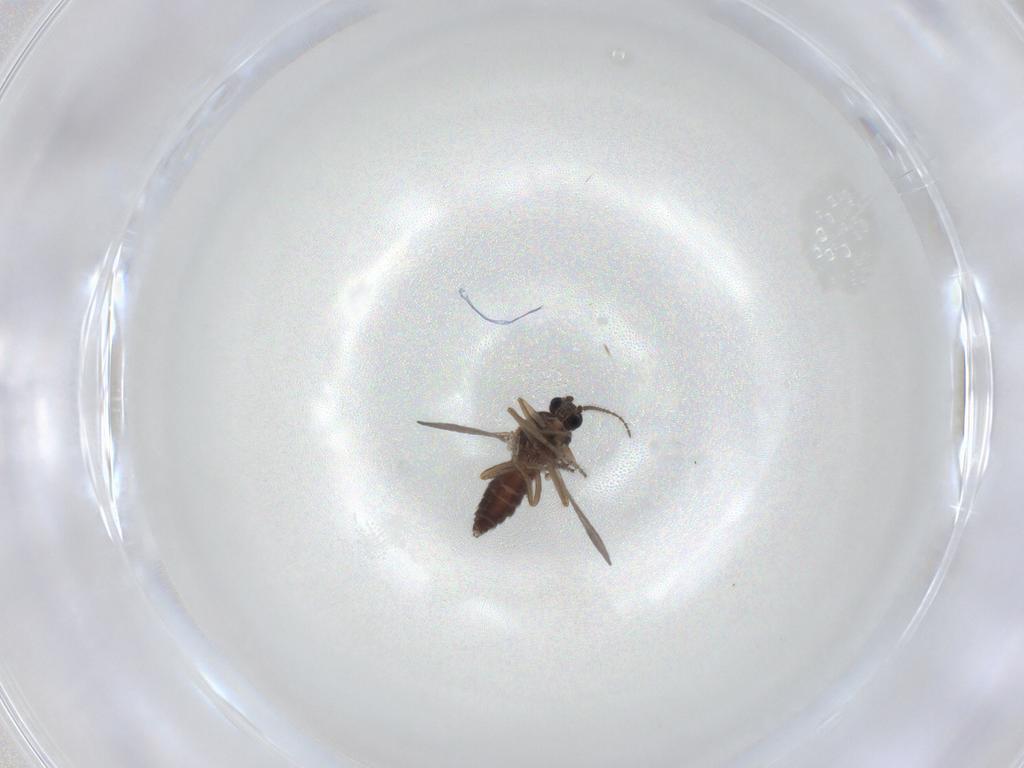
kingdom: Animalia
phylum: Arthropoda
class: Insecta
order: Diptera
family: Ceratopogonidae
